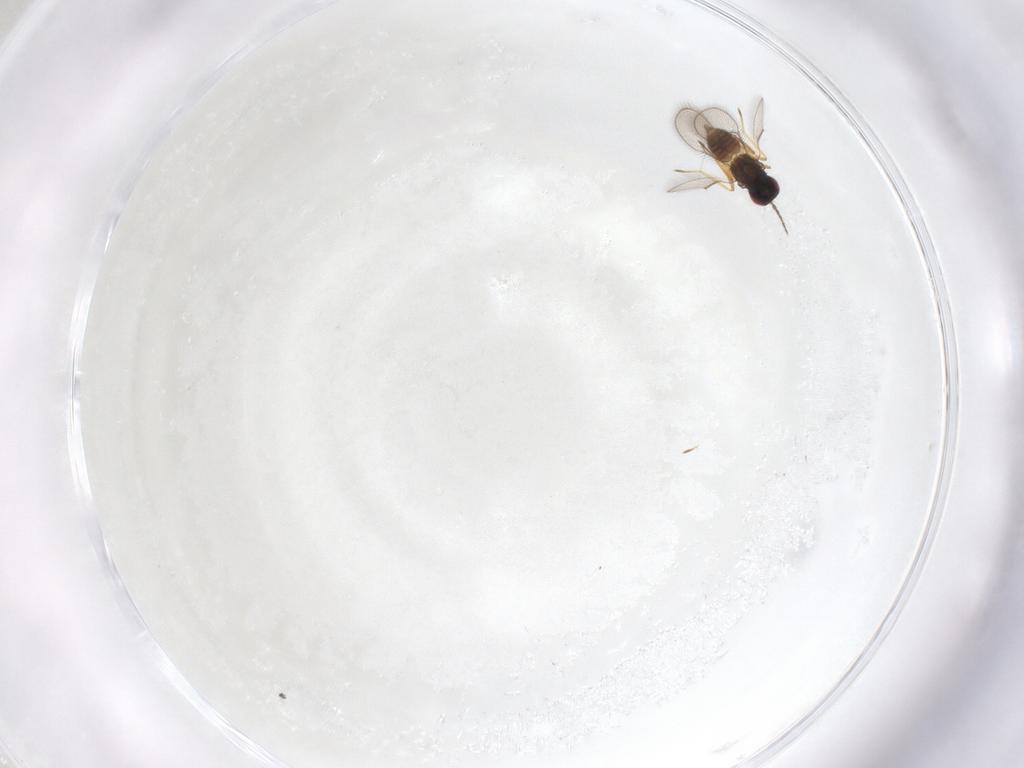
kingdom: Animalia
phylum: Arthropoda
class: Insecta
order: Hymenoptera
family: Eulophidae
